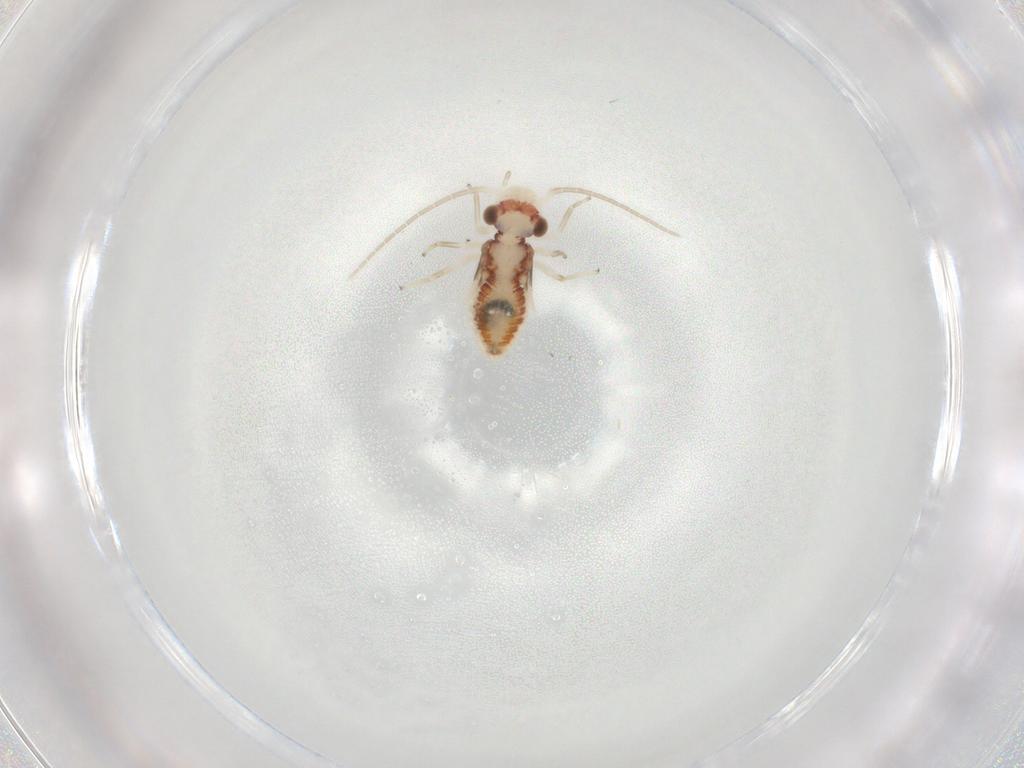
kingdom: Animalia
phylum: Arthropoda
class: Insecta
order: Psocodea
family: Archipsocidae
